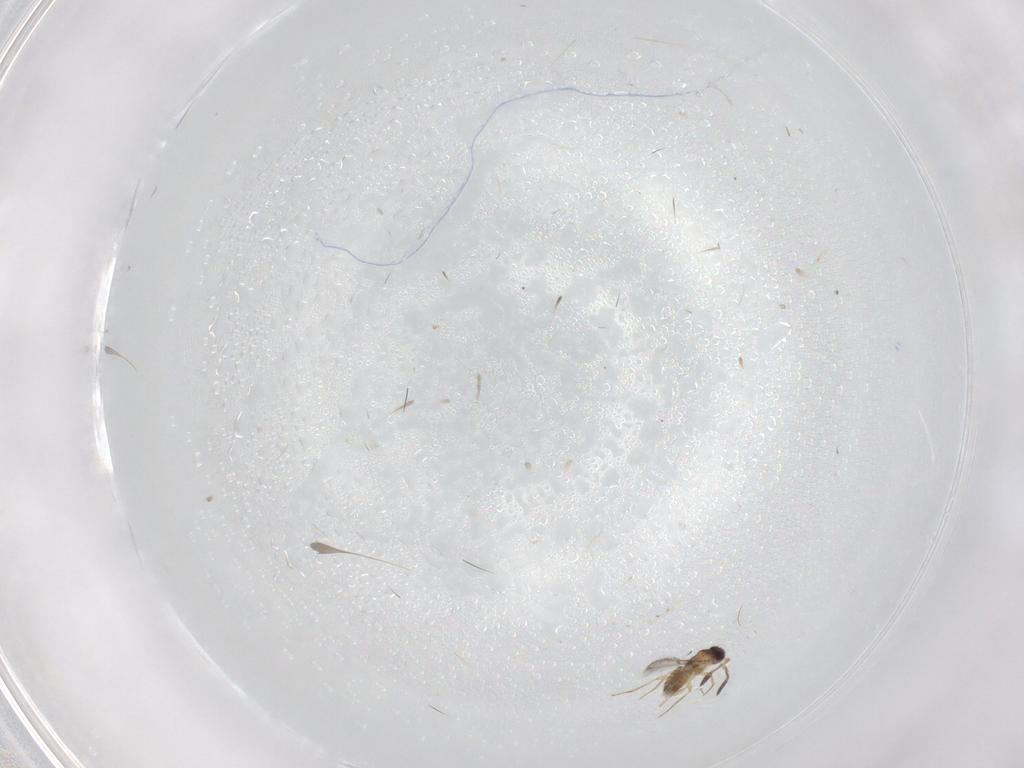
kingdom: Animalia
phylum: Arthropoda
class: Insecta
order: Hymenoptera
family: Mymaridae
